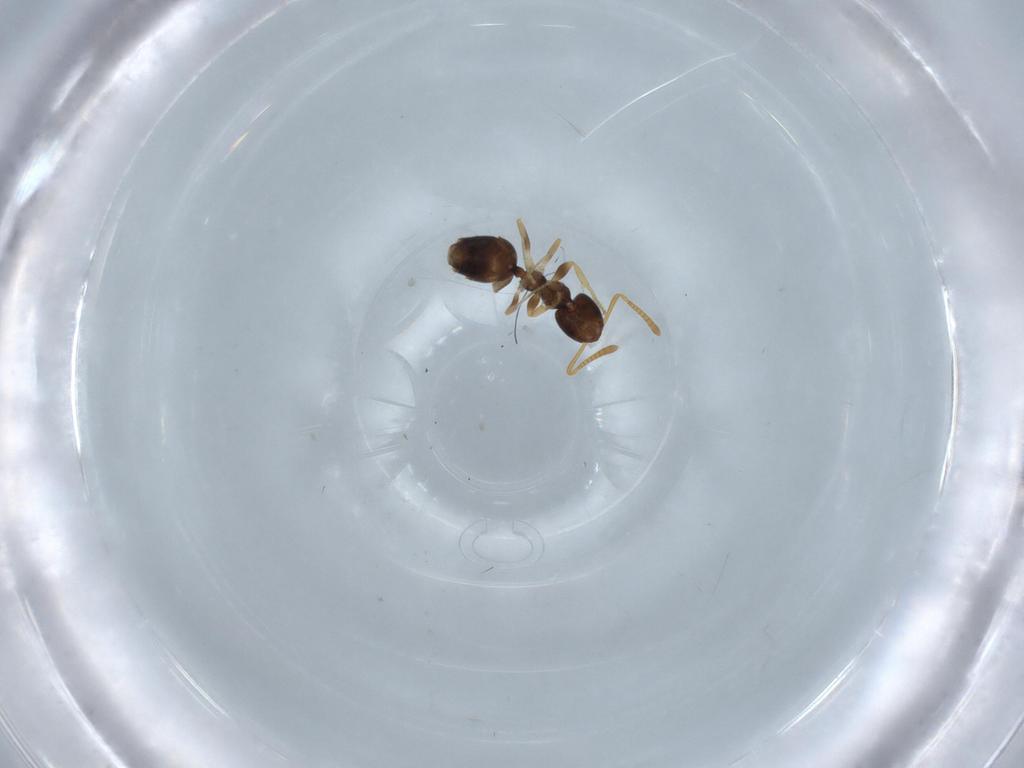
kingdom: Animalia
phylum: Arthropoda
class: Insecta
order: Hymenoptera
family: Formicidae
